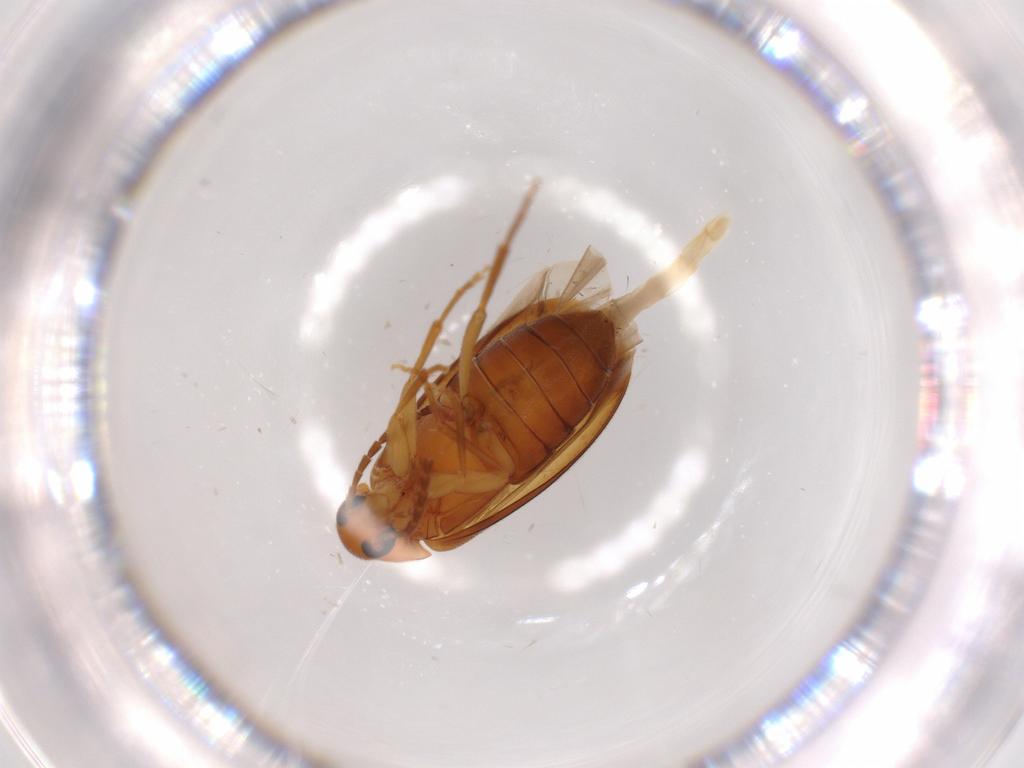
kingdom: Animalia
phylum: Arthropoda
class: Insecta
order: Coleoptera
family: Scraptiidae
